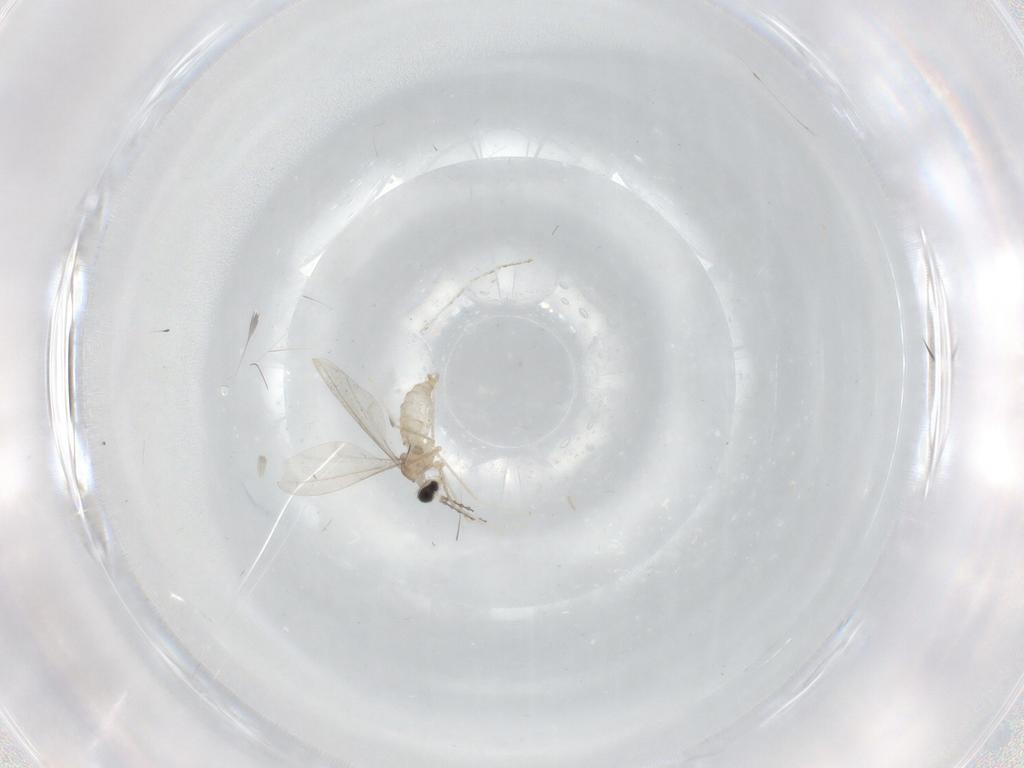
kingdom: Animalia
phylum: Arthropoda
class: Insecta
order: Diptera
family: Cecidomyiidae
